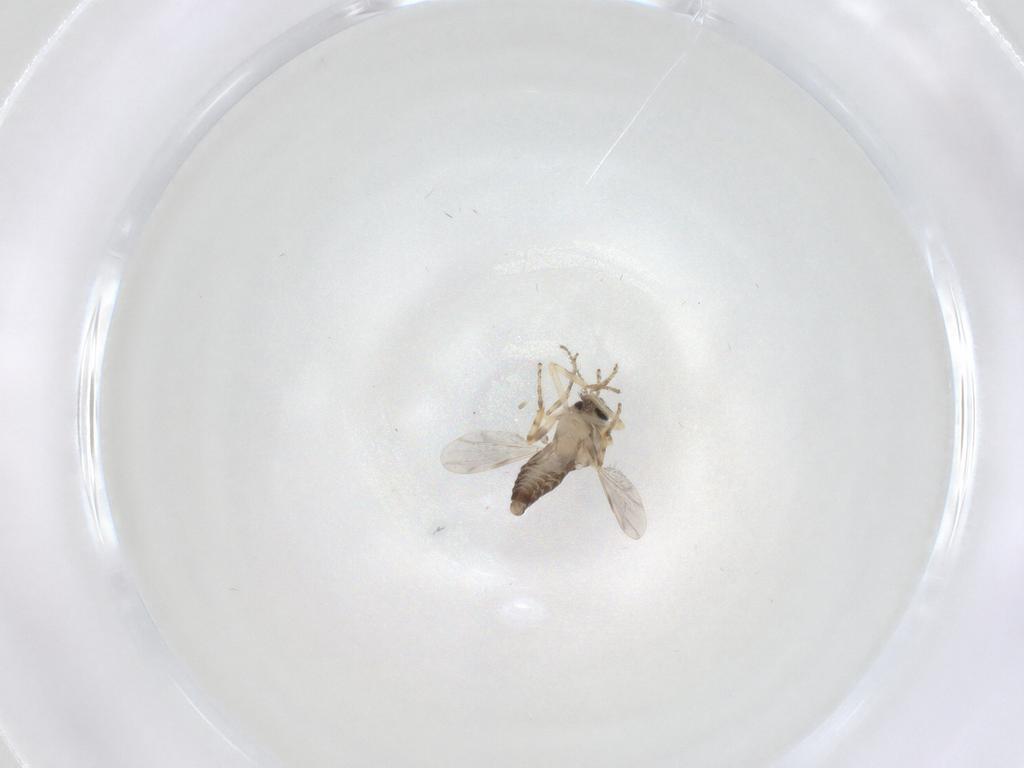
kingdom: Animalia
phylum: Arthropoda
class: Insecta
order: Diptera
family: Ceratopogonidae
